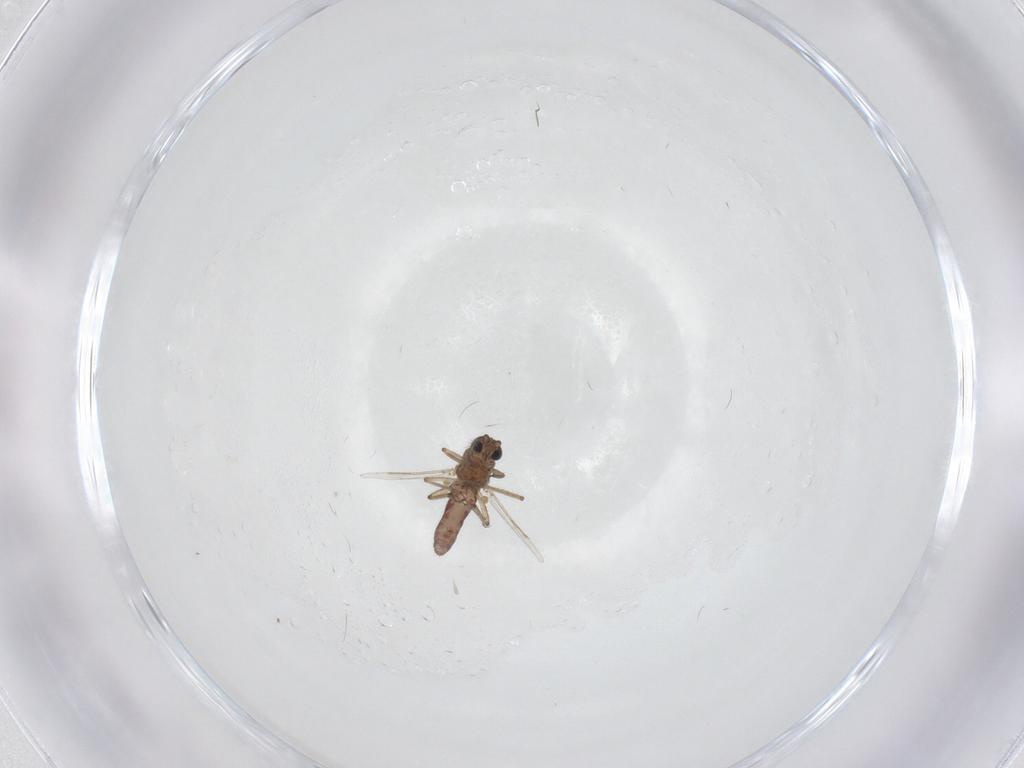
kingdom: Animalia
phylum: Arthropoda
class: Insecta
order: Diptera
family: Ceratopogonidae
